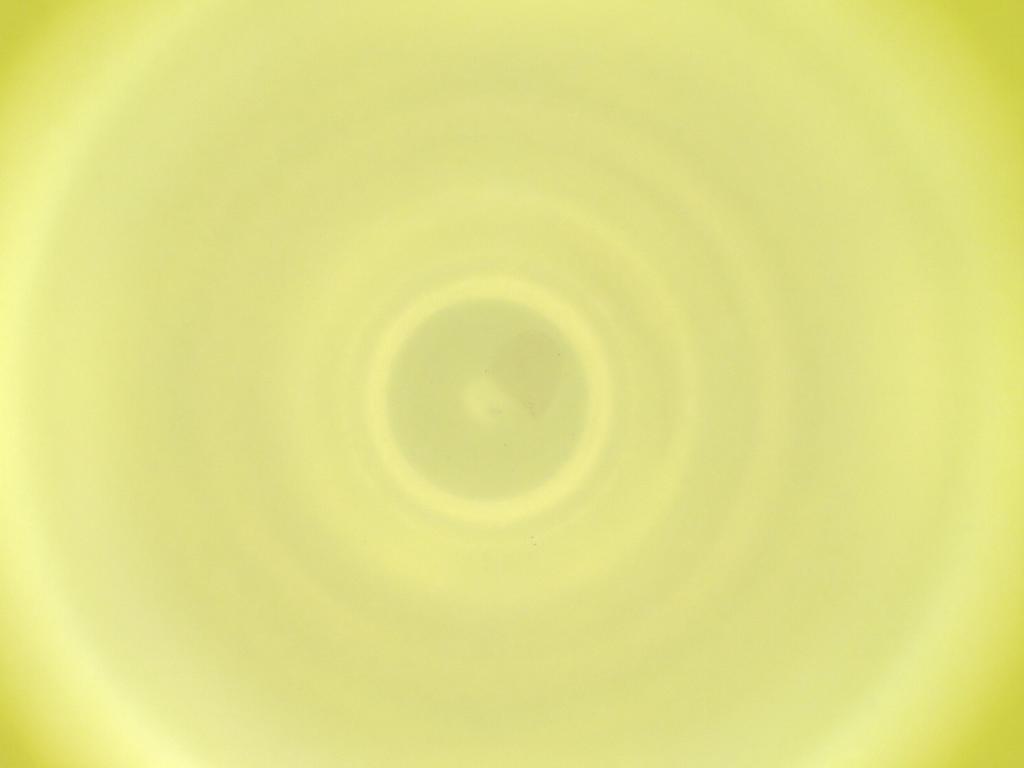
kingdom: Animalia
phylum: Arthropoda
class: Insecta
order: Diptera
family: Cecidomyiidae
